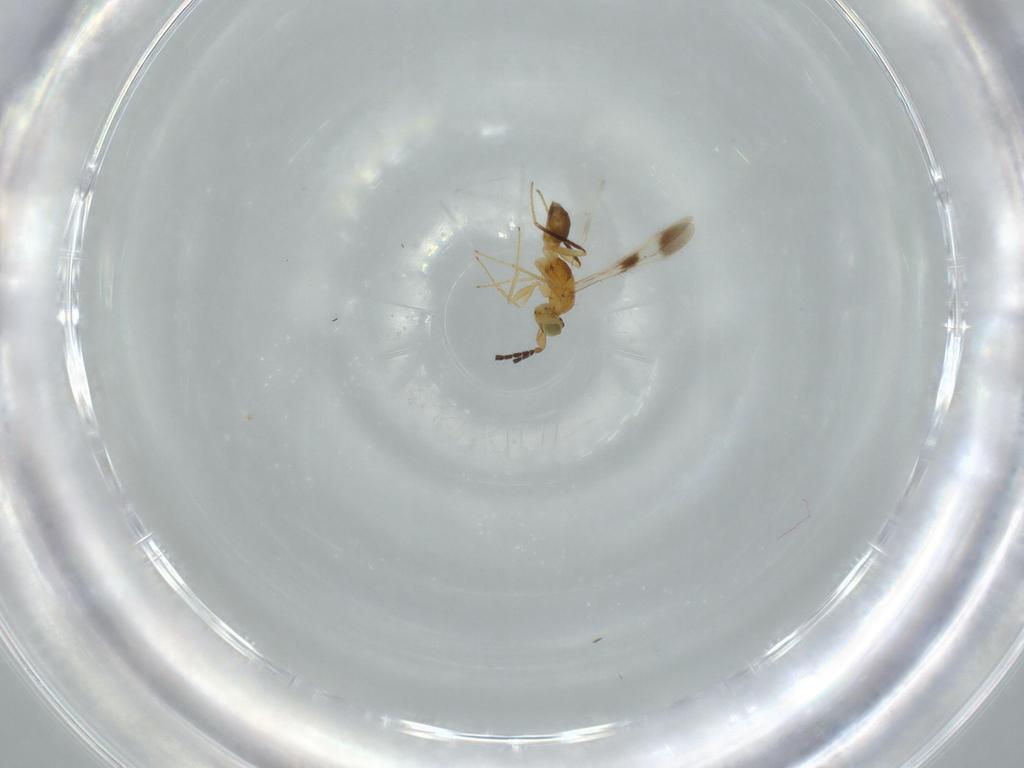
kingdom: Animalia
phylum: Arthropoda
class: Insecta
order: Hymenoptera
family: Mymaridae
